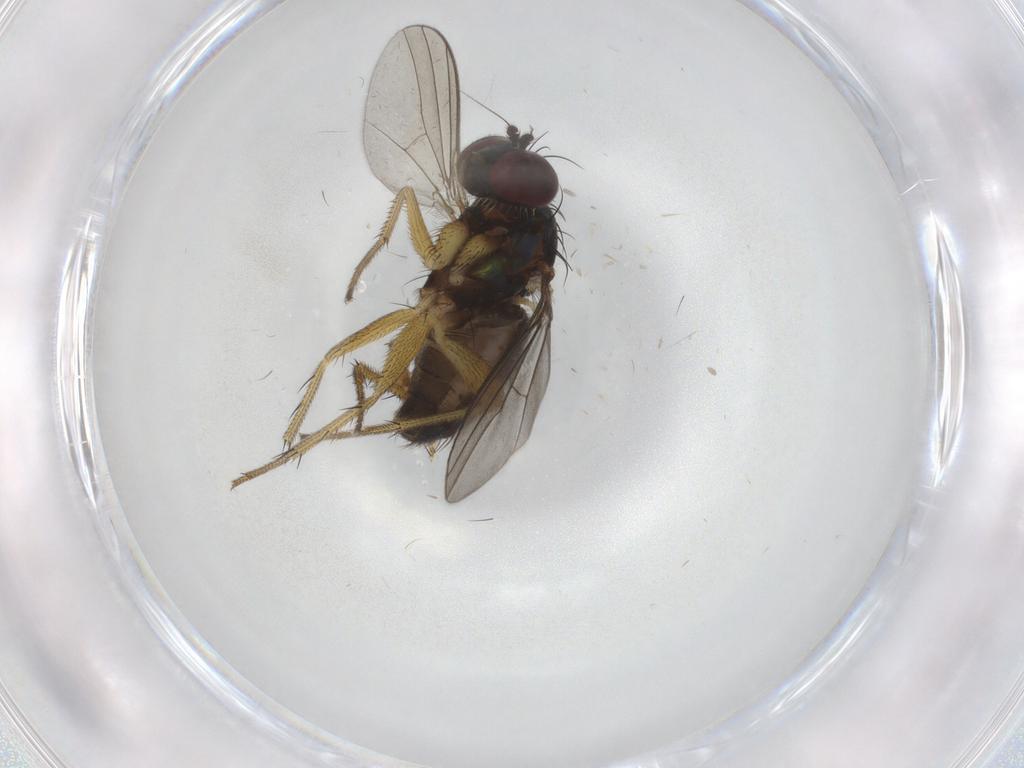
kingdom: Animalia
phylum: Arthropoda
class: Insecta
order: Diptera
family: Dolichopodidae
